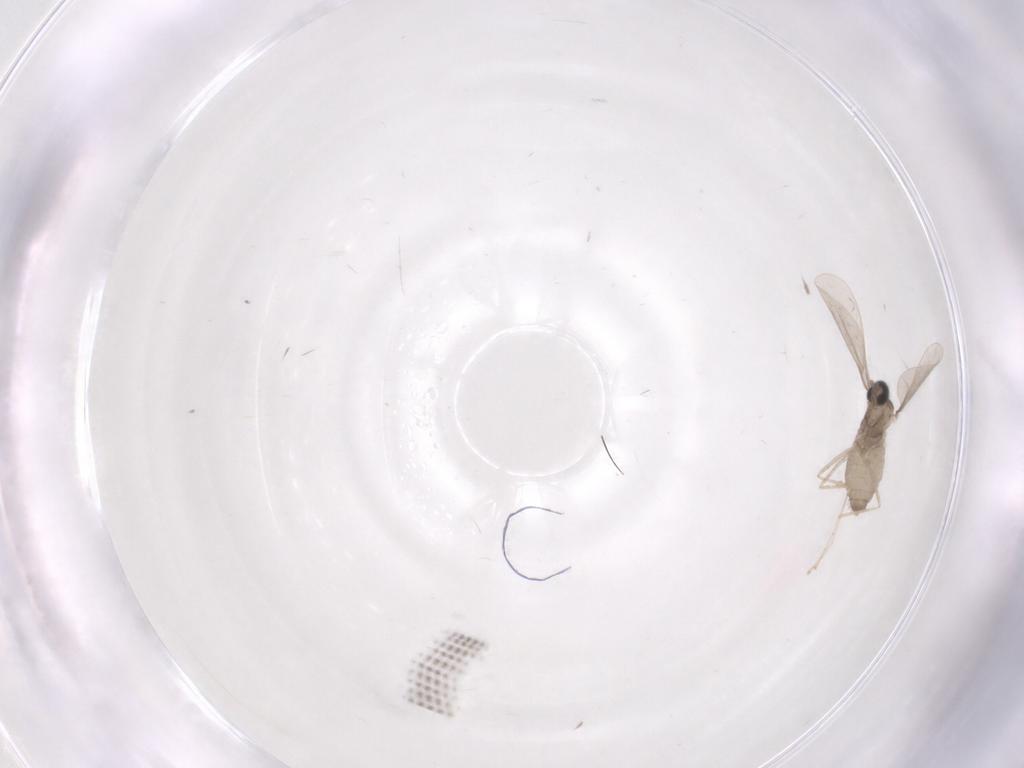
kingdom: Animalia
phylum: Arthropoda
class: Insecta
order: Diptera
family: Cecidomyiidae
